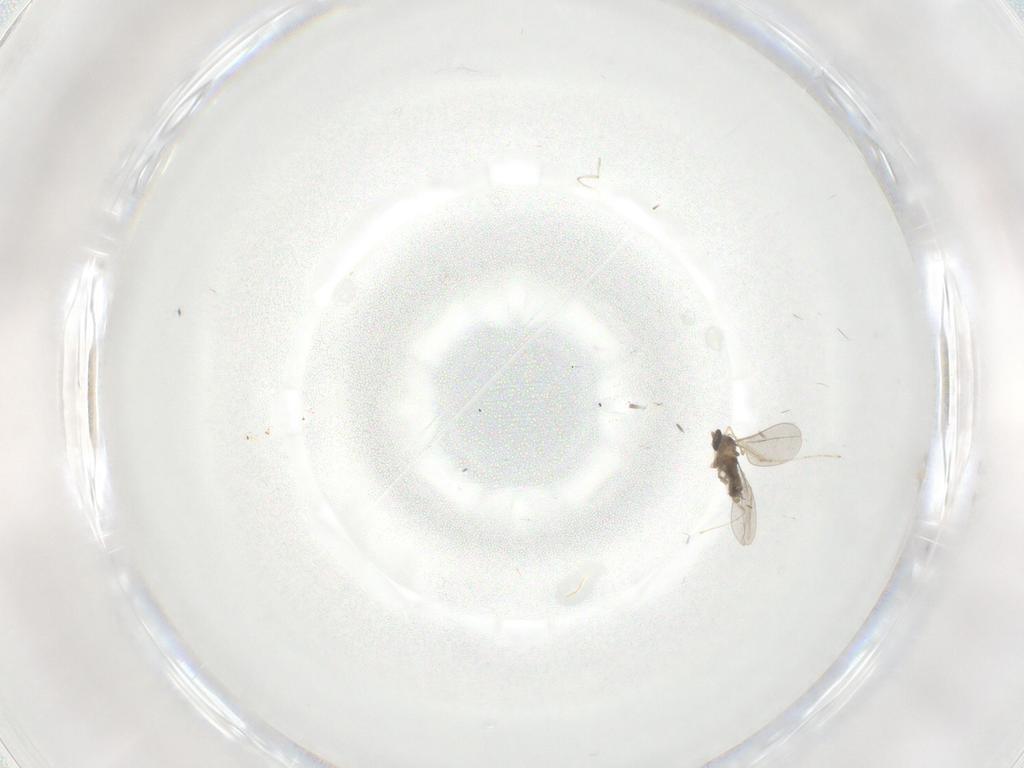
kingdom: Animalia
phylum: Arthropoda
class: Insecta
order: Diptera
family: Cecidomyiidae
